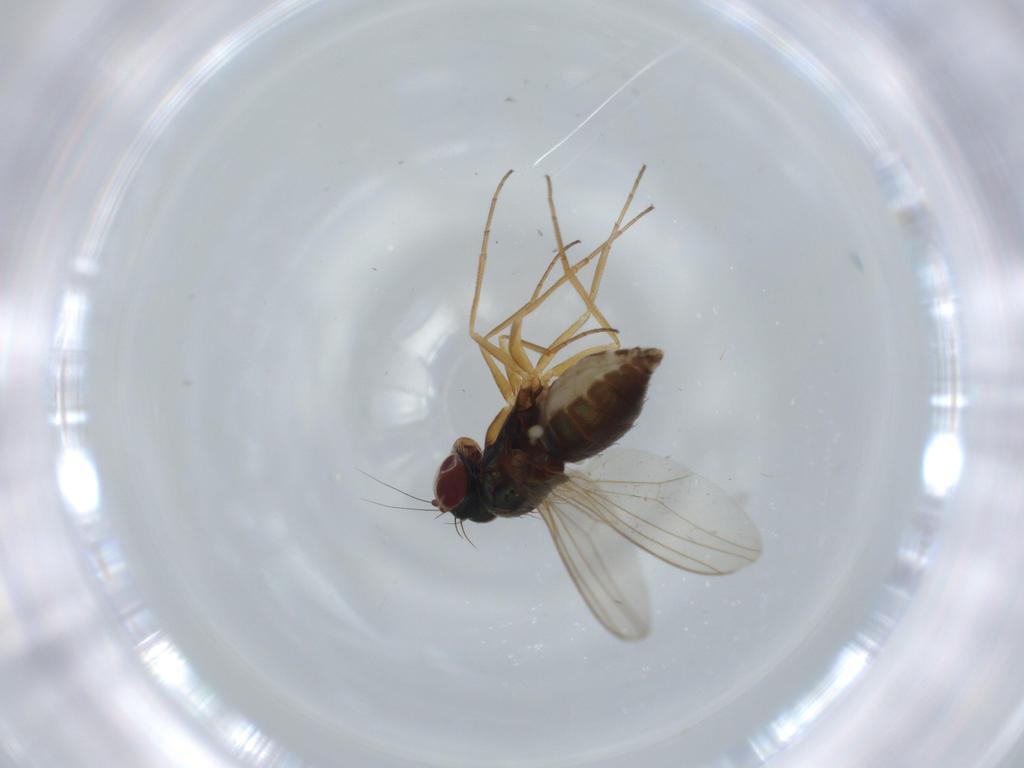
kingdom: Animalia
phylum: Arthropoda
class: Insecta
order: Diptera
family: Dolichopodidae
